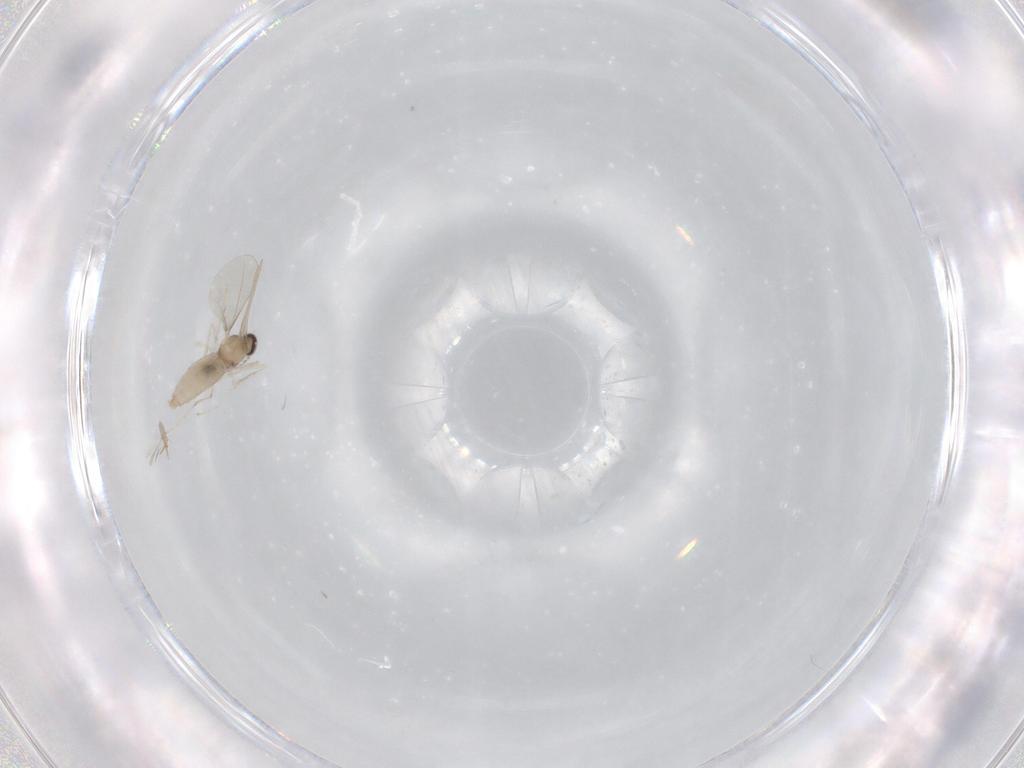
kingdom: Animalia
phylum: Arthropoda
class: Insecta
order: Diptera
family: Cecidomyiidae
